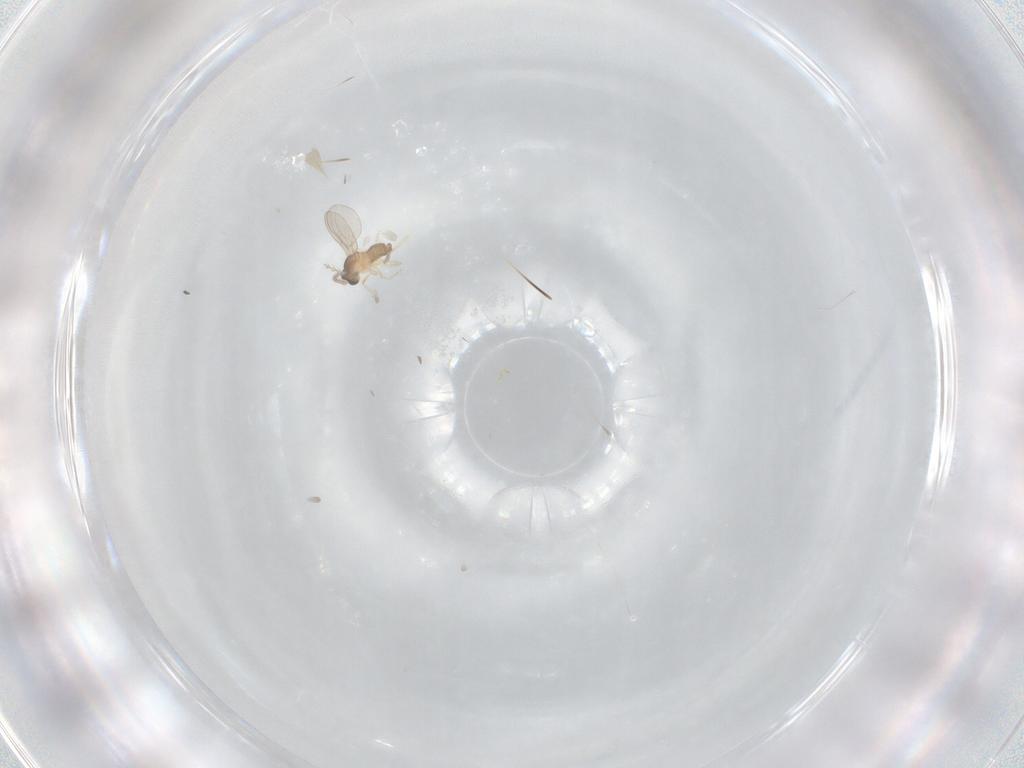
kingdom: Animalia
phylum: Arthropoda
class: Insecta
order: Diptera
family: Cecidomyiidae
